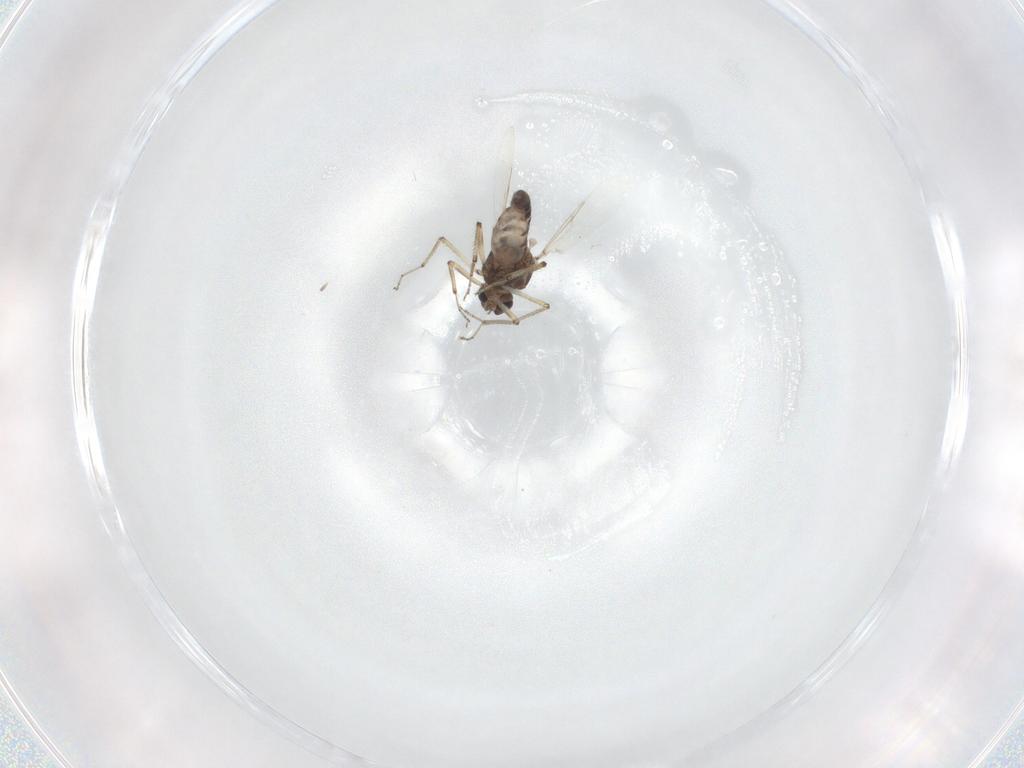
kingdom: Animalia
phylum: Arthropoda
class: Insecta
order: Diptera
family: Ceratopogonidae
